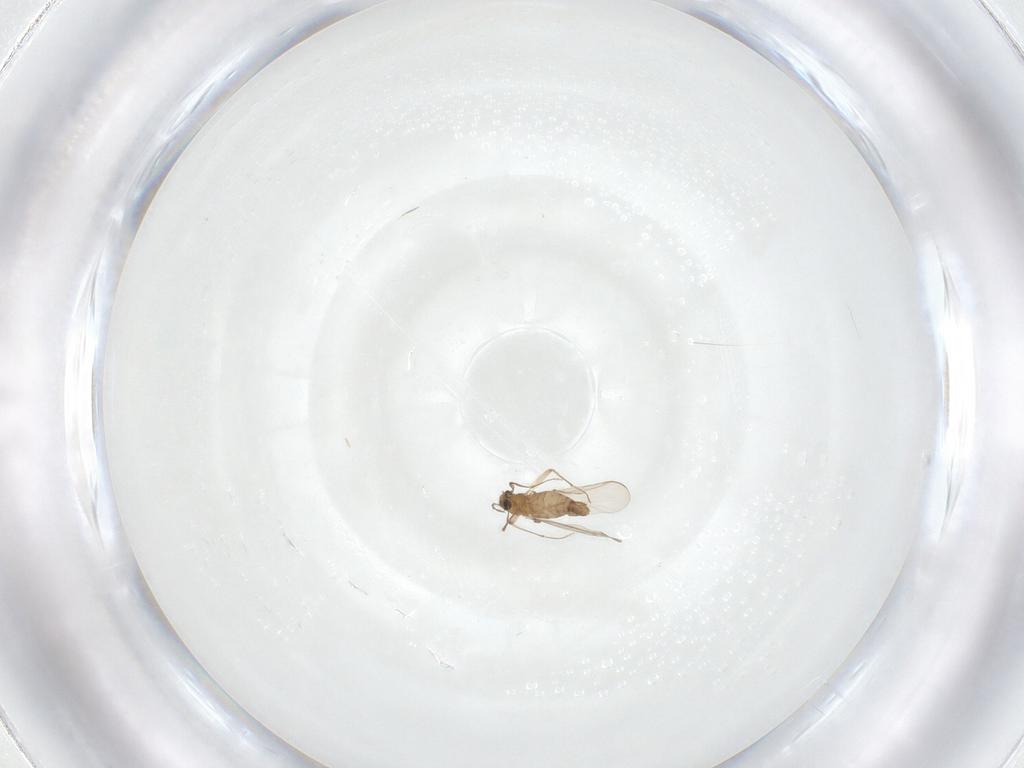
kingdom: Animalia
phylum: Arthropoda
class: Insecta
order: Diptera
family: Chironomidae
